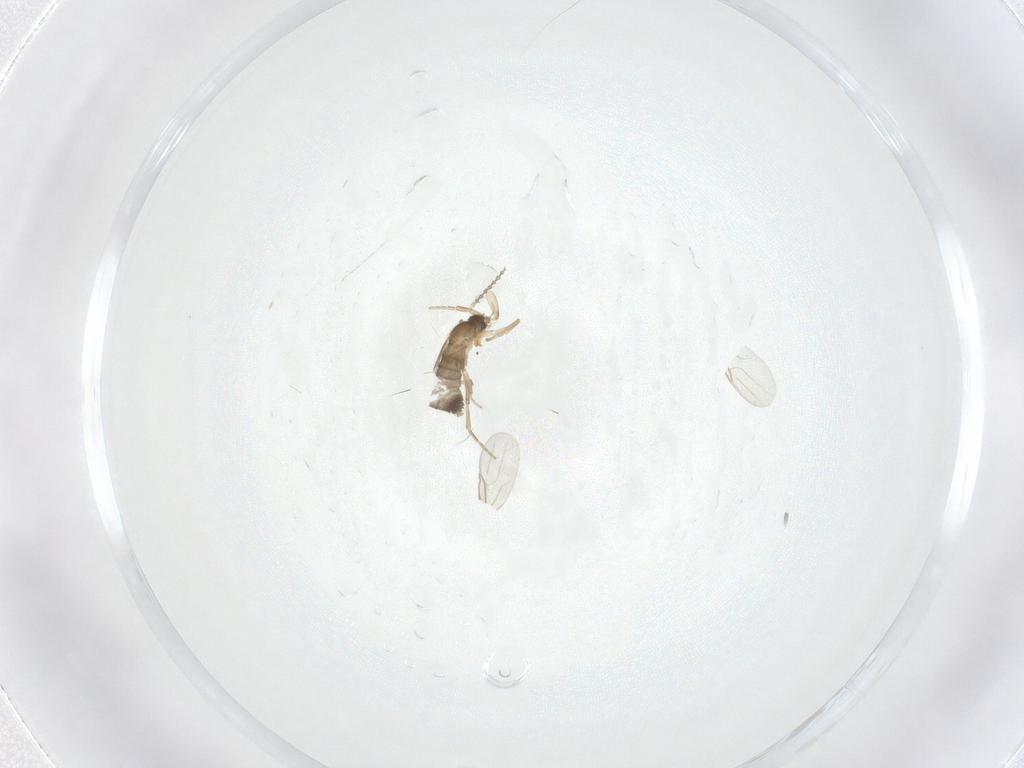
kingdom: Animalia
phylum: Arthropoda
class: Insecta
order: Diptera
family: Cecidomyiidae
